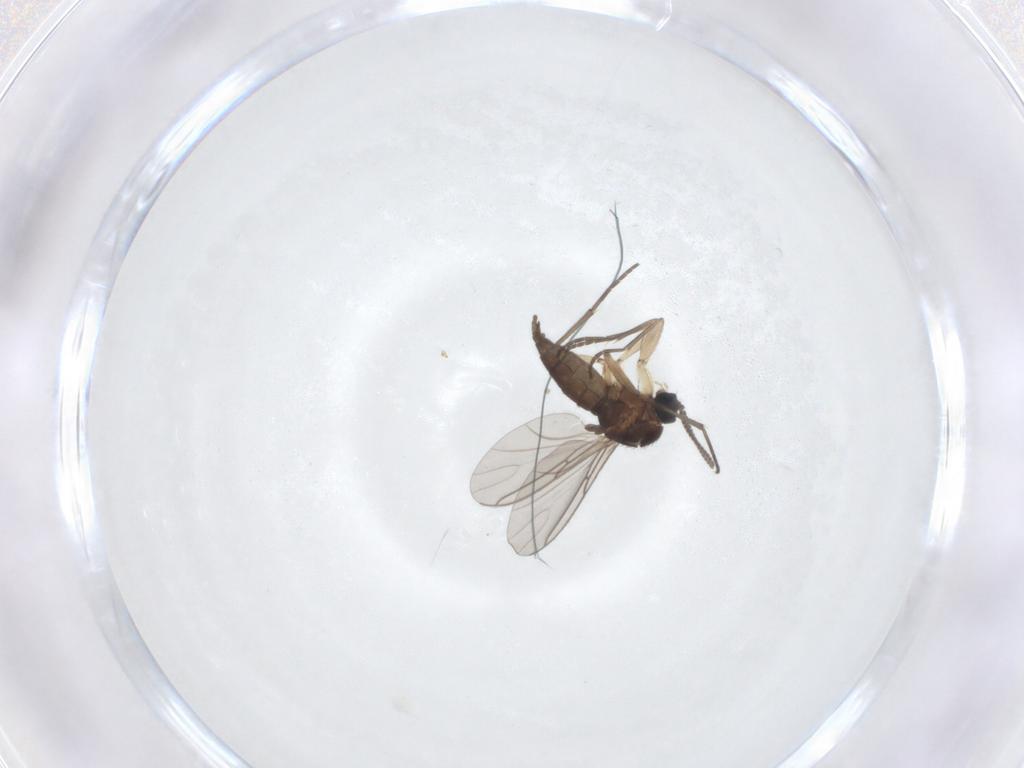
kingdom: Animalia
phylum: Arthropoda
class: Insecta
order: Diptera
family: Sciaridae
